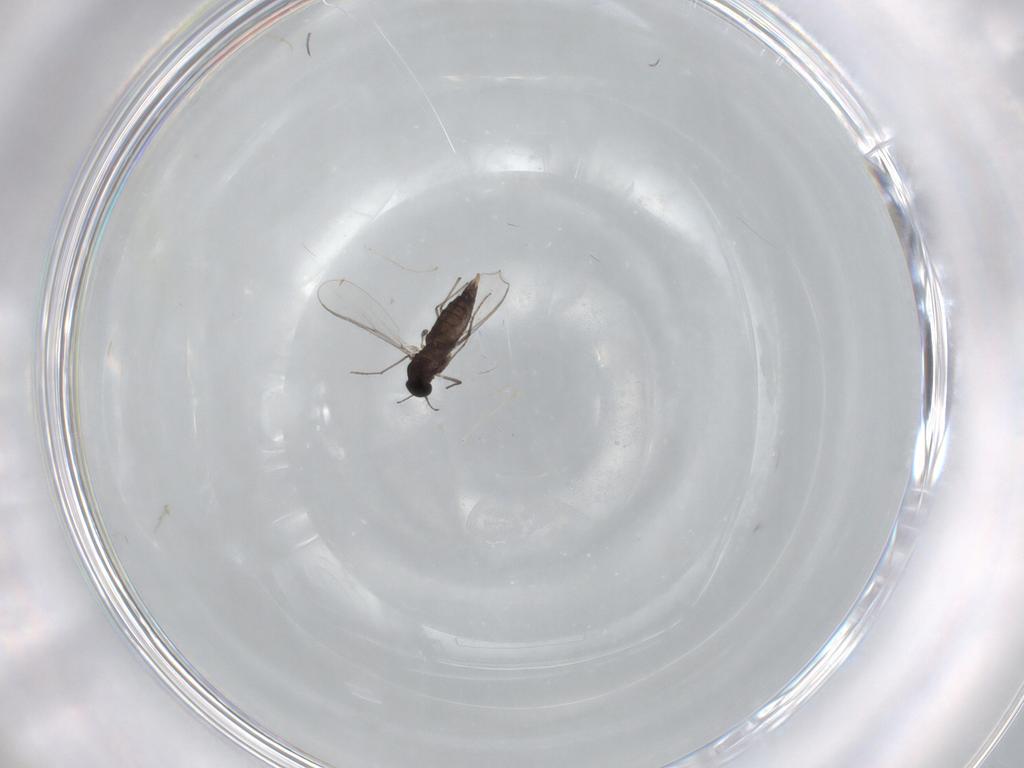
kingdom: Animalia
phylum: Arthropoda
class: Insecta
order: Diptera
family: Chironomidae
